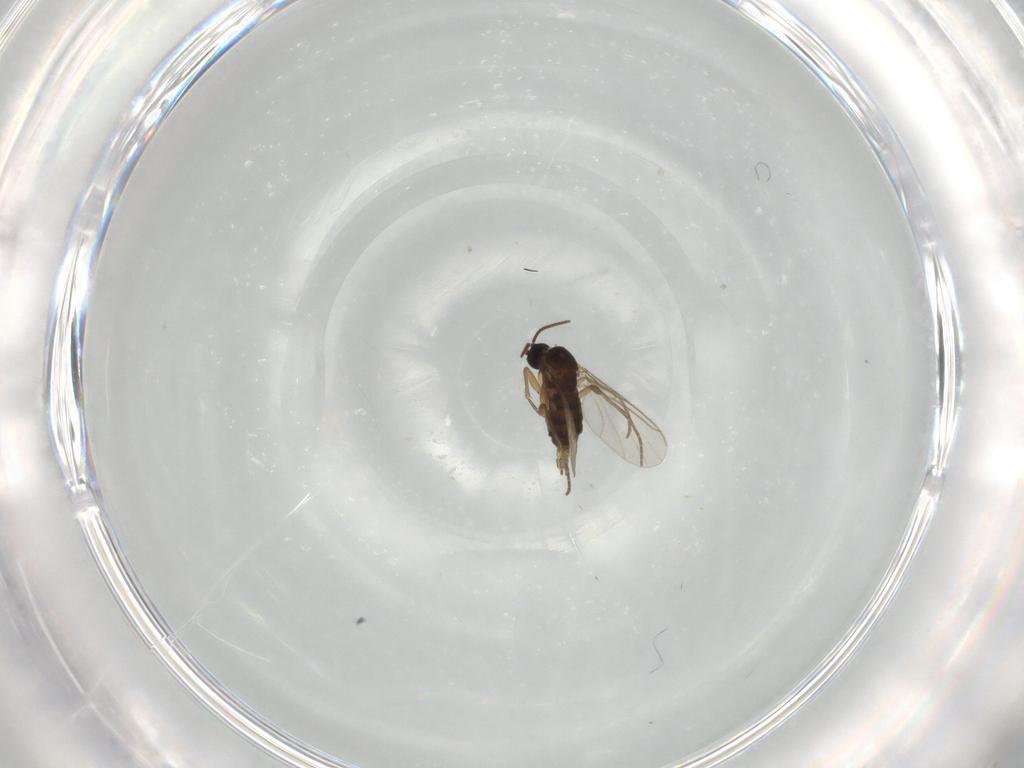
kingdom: Animalia
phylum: Arthropoda
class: Insecta
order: Diptera
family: Sciaridae
